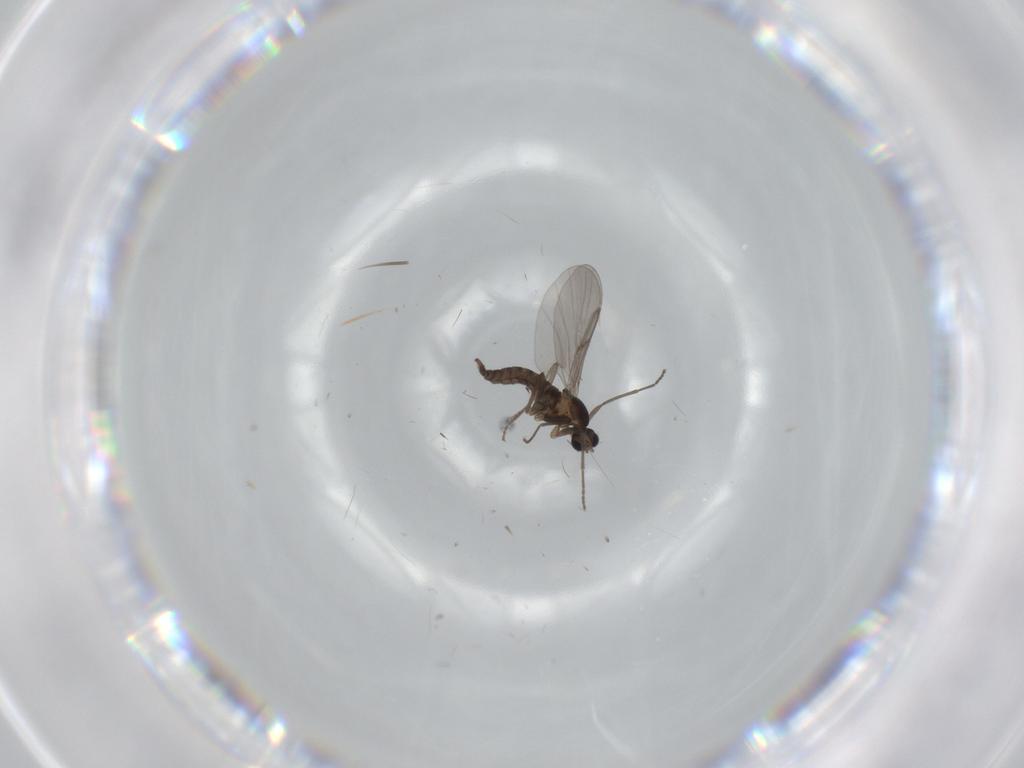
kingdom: Animalia
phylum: Arthropoda
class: Insecta
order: Diptera
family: Cecidomyiidae
